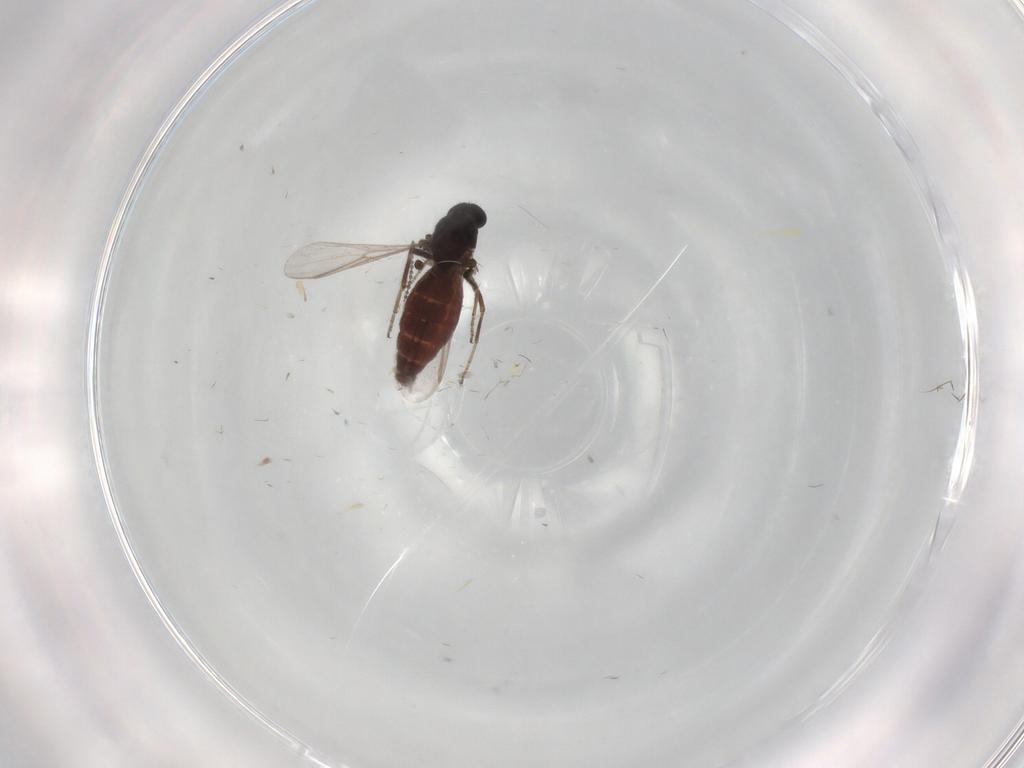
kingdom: Animalia
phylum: Arthropoda
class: Insecta
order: Diptera
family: Ceratopogonidae
